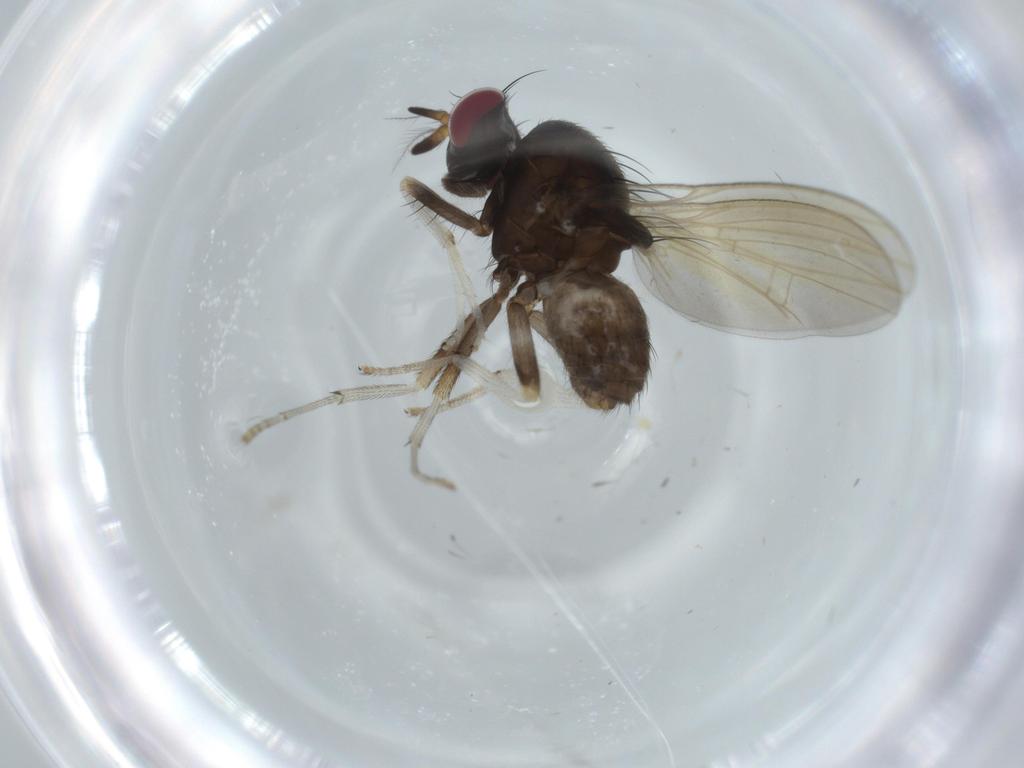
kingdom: Animalia
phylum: Arthropoda
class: Insecta
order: Diptera
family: Lauxaniidae
